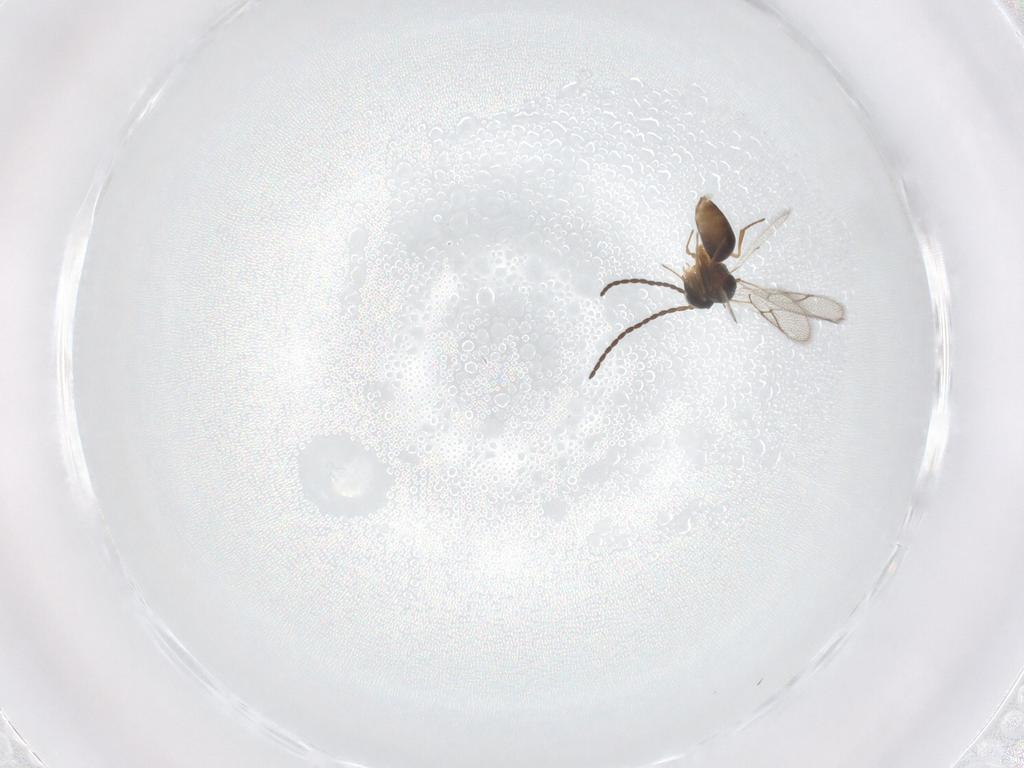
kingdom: Animalia
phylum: Arthropoda
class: Insecta
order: Hymenoptera
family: Figitidae
